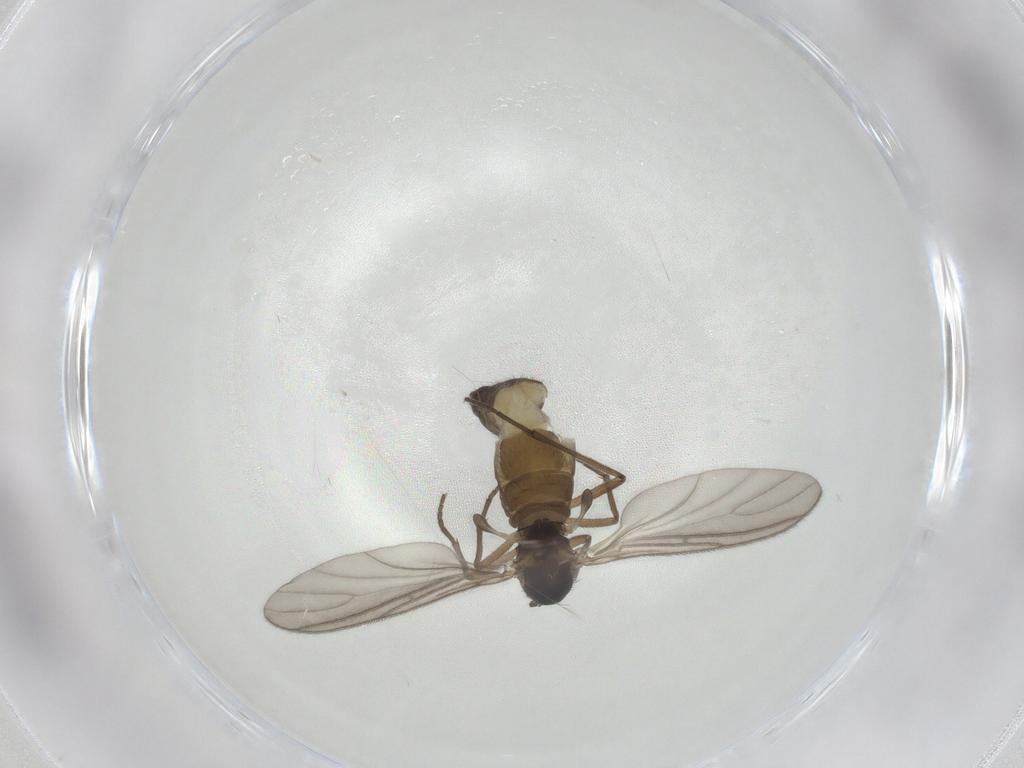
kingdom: Animalia
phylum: Arthropoda
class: Insecta
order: Diptera
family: Sciaridae
